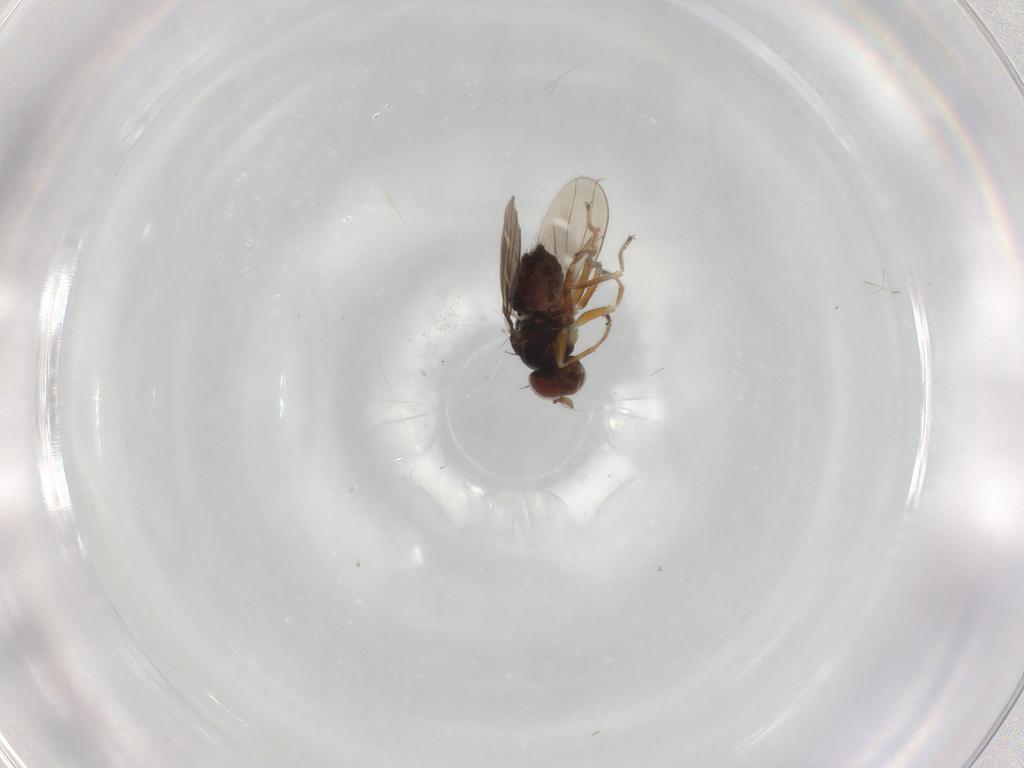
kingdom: Animalia
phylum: Arthropoda
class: Insecta
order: Diptera
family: Ephydridae
